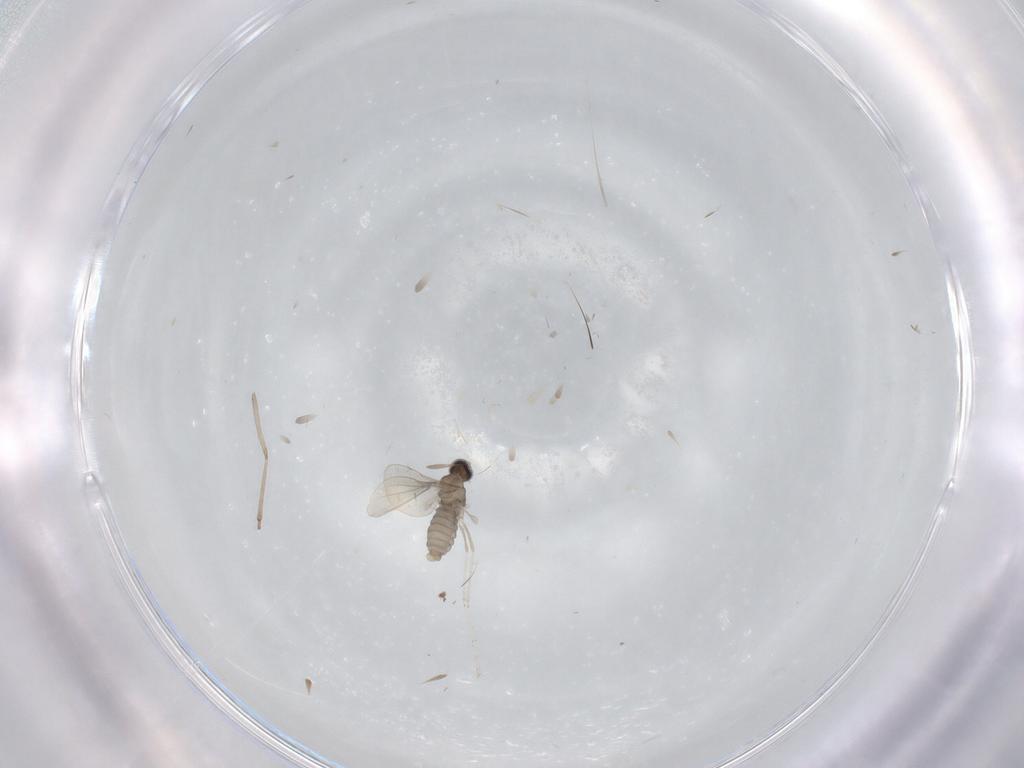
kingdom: Animalia
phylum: Arthropoda
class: Insecta
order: Diptera
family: Cecidomyiidae
